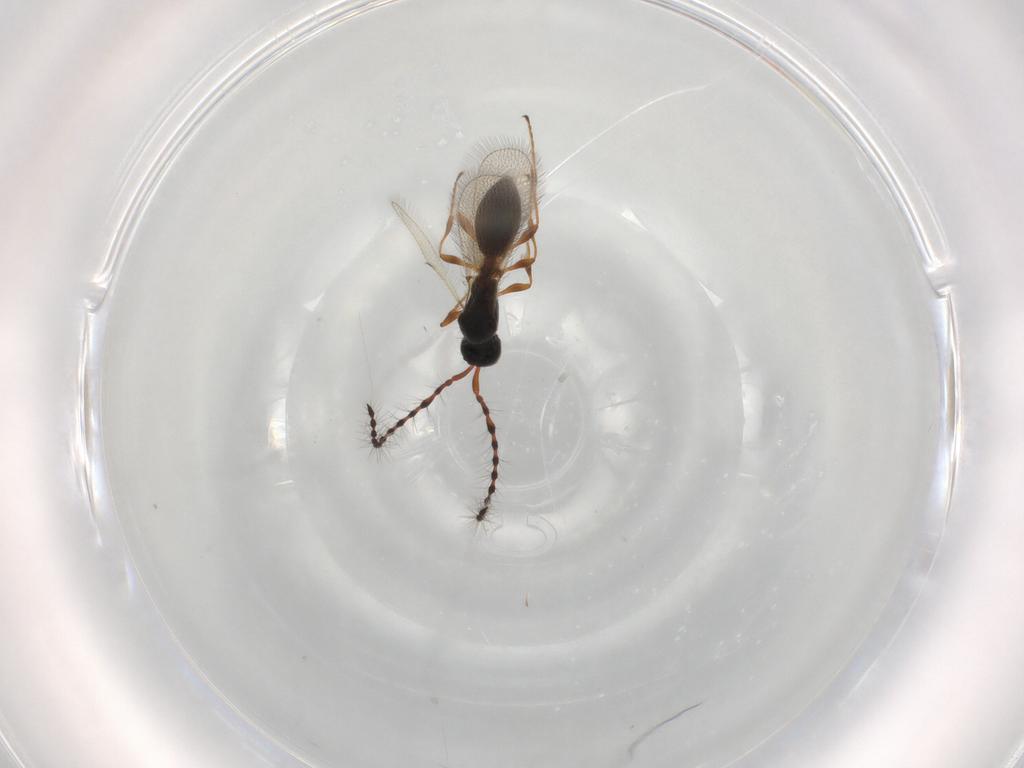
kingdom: Animalia
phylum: Arthropoda
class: Insecta
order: Hymenoptera
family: Diapriidae
